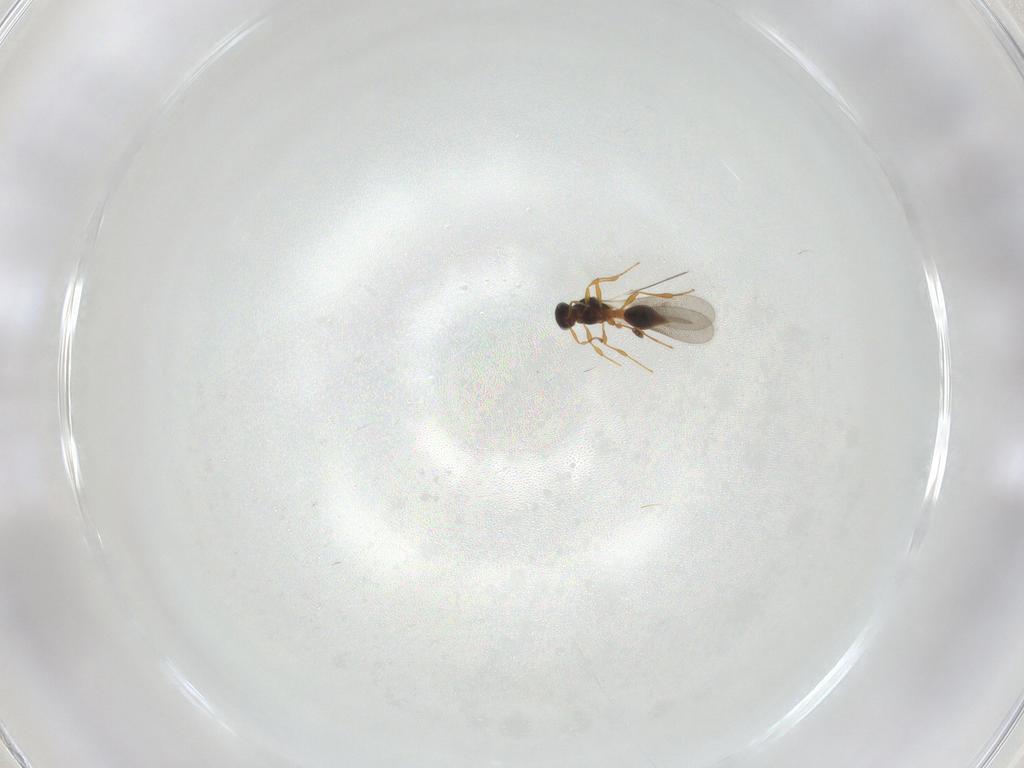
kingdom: Animalia
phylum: Arthropoda
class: Insecta
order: Hymenoptera
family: Platygastridae
